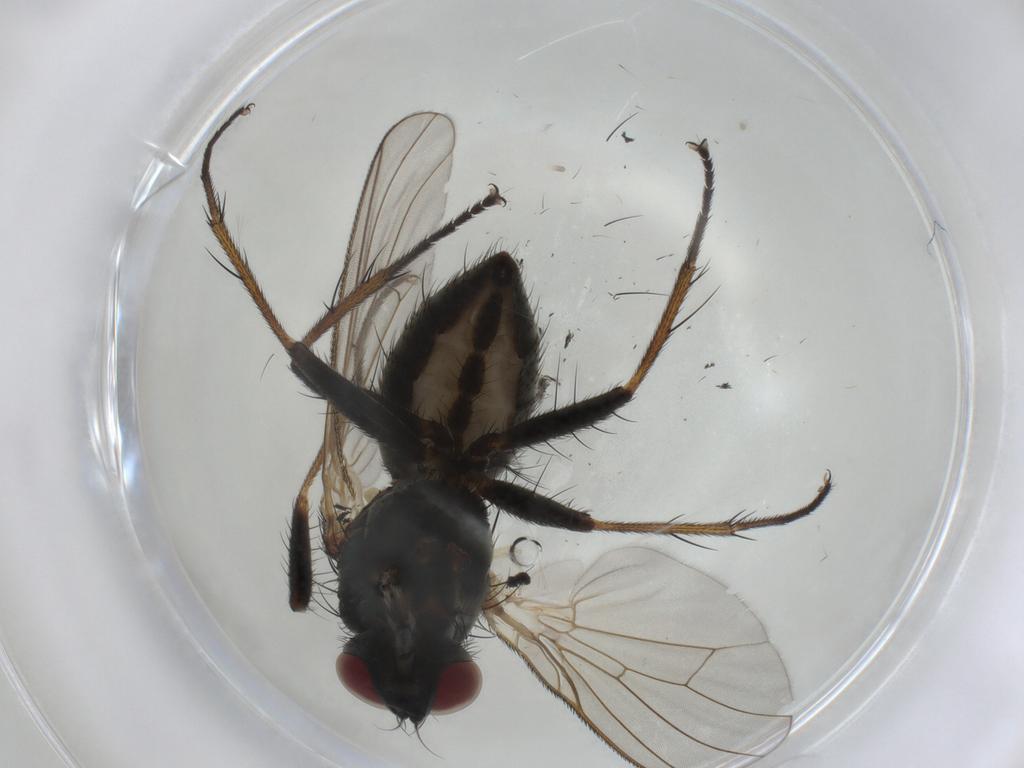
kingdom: Animalia
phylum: Arthropoda
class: Insecta
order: Diptera
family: Muscidae
